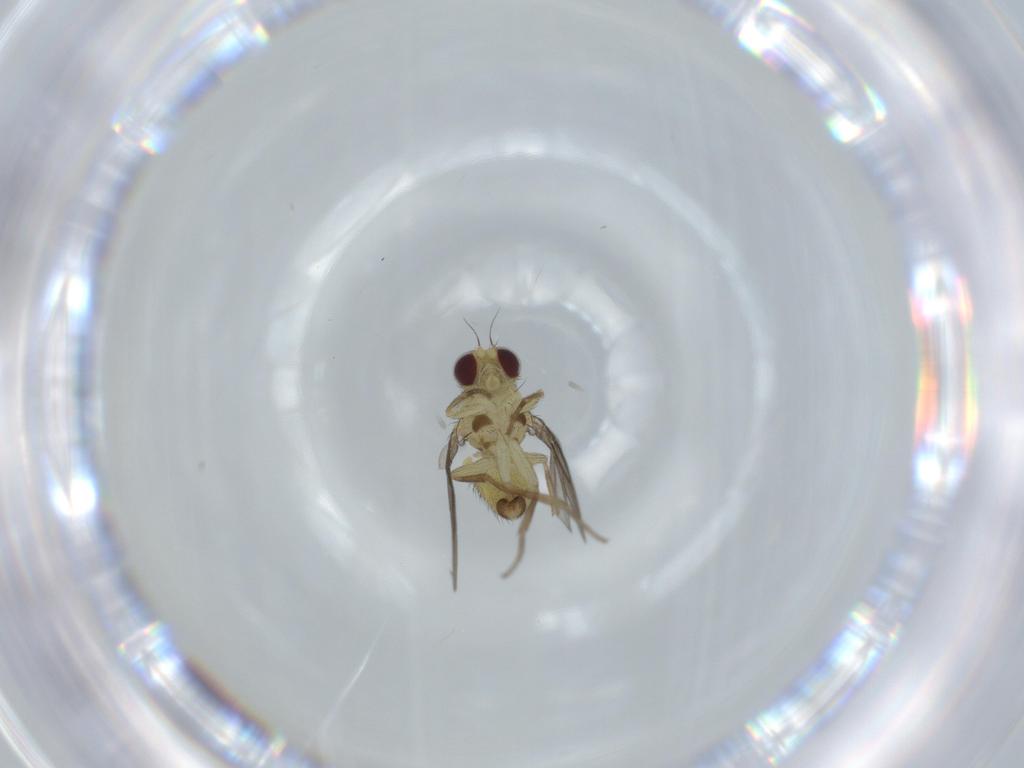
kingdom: Animalia
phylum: Arthropoda
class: Insecta
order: Diptera
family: Agromyzidae
